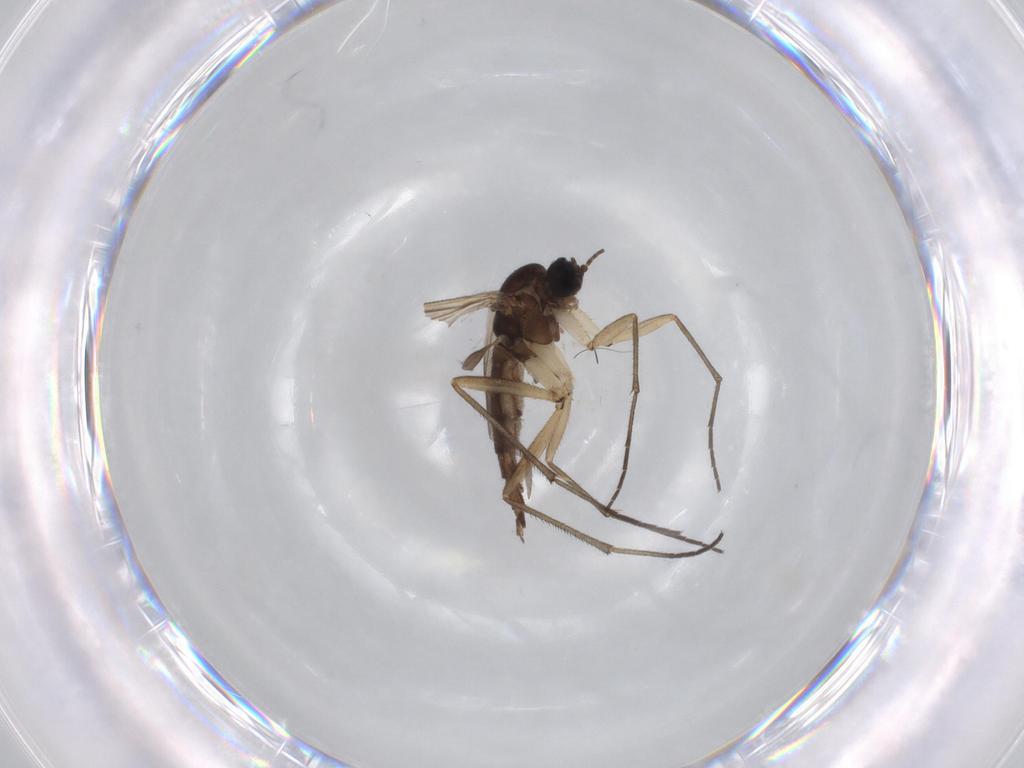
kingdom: Animalia
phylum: Arthropoda
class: Insecta
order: Diptera
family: Sciaridae
